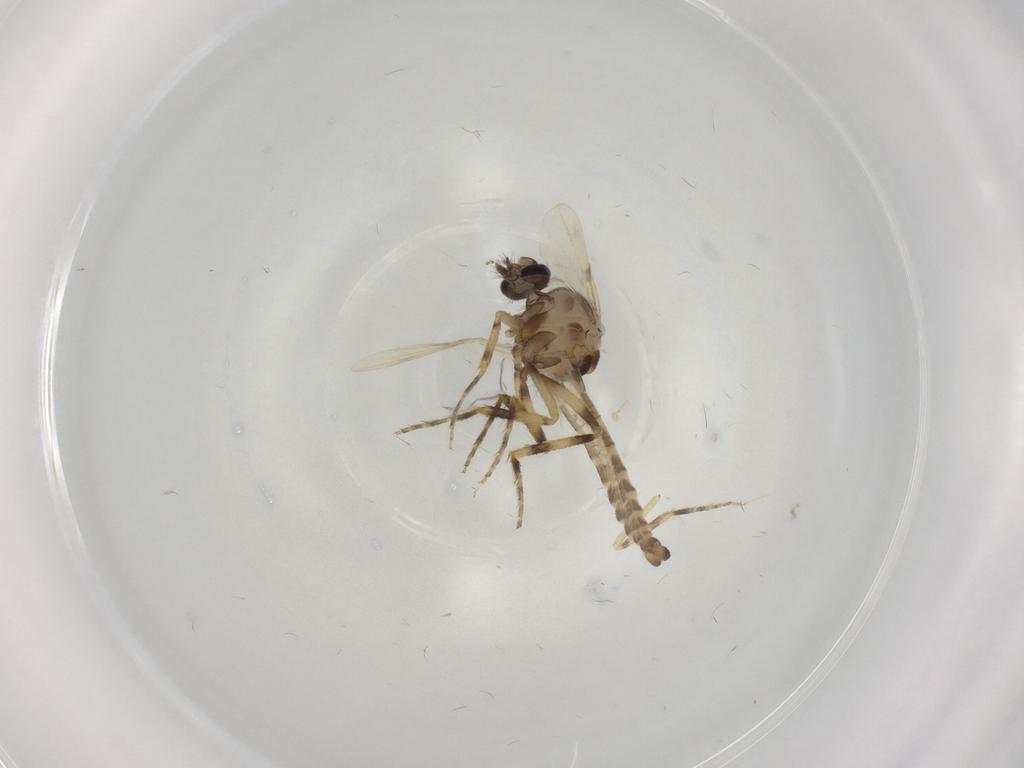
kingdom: Animalia
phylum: Arthropoda
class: Insecta
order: Diptera
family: Ceratopogonidae
